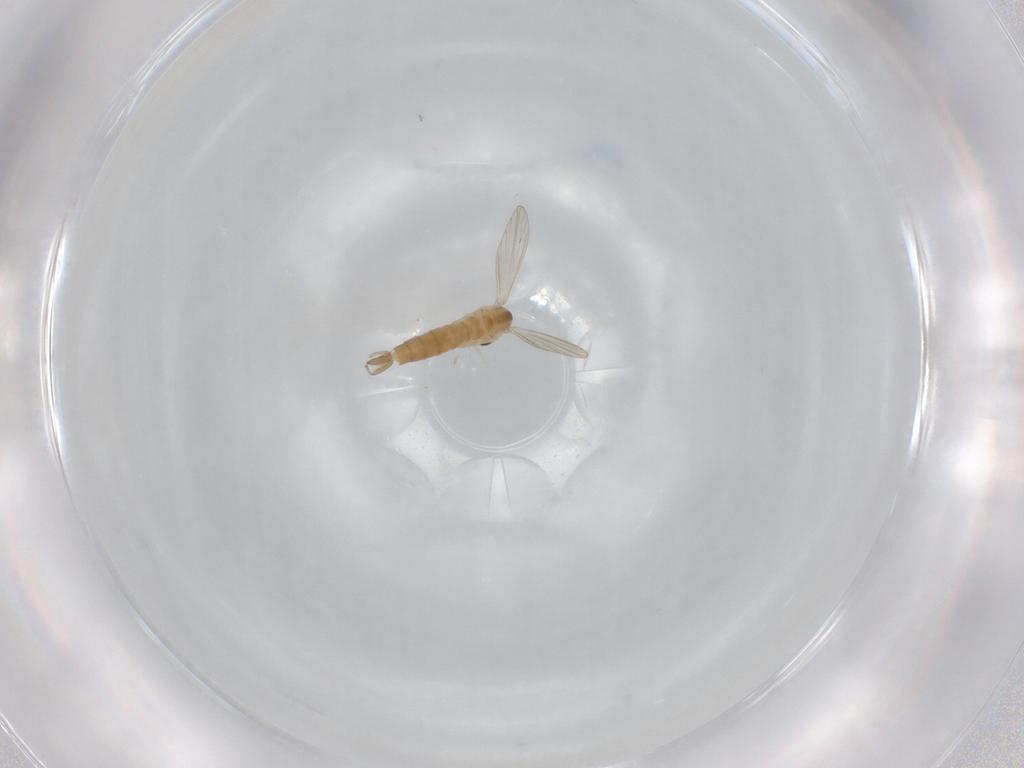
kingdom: Animalia
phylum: Arthropoda
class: Insecta
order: Diptera
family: Psychodidae
